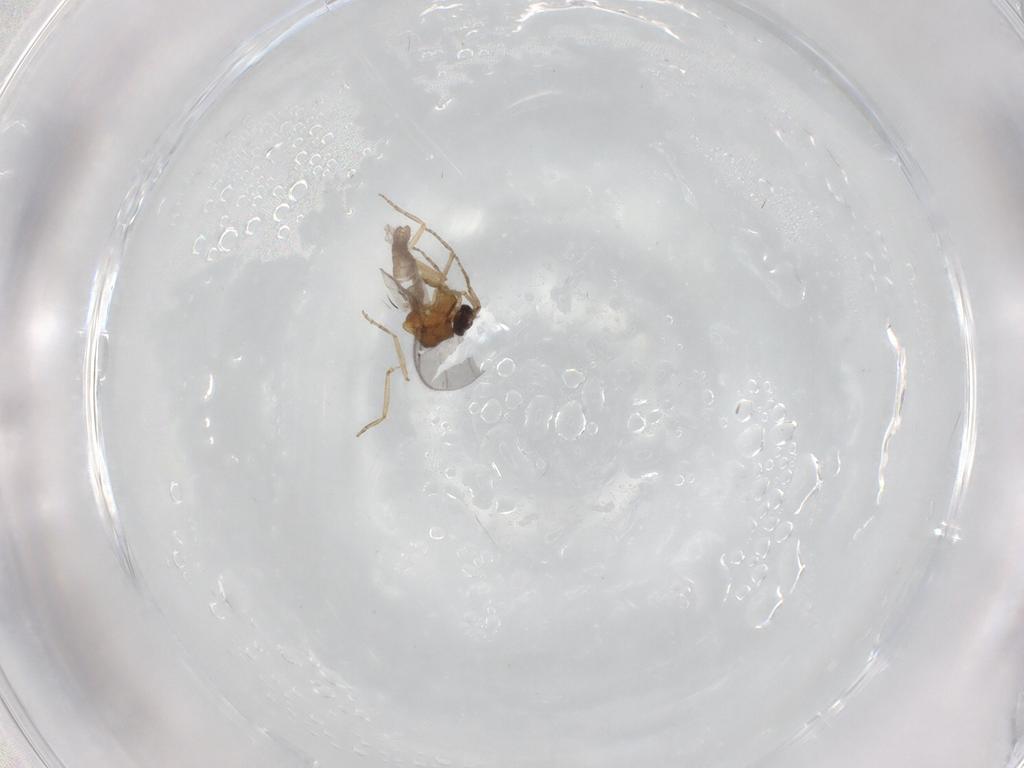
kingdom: Animalia
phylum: Arthropoda
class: Insecta
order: Diptera
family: Sciaridae
